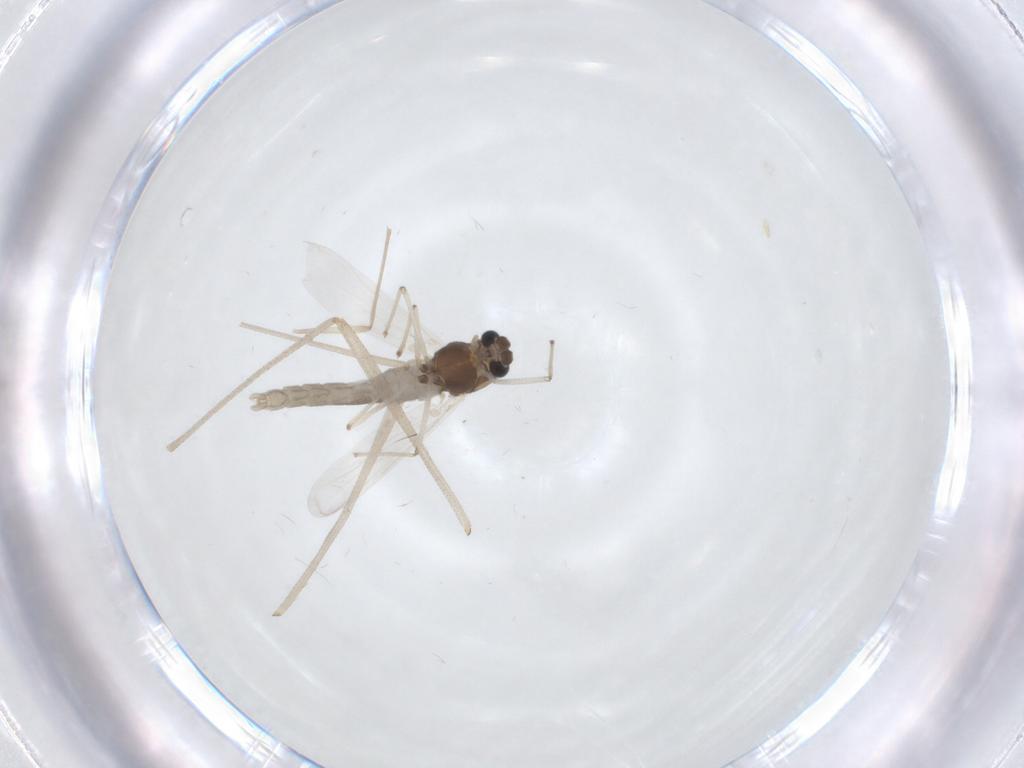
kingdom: Animalia
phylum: Arthropoda
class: Insecta
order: Diptera
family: Chironomidae
